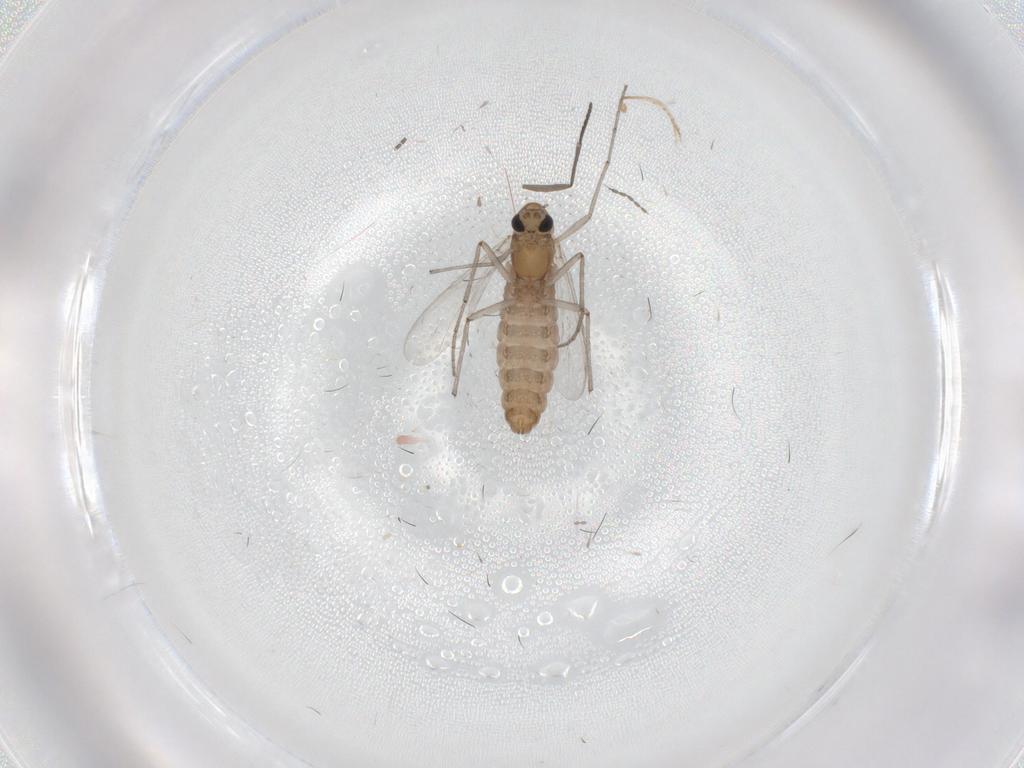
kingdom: Animalia
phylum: Arthropoda
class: Insecta
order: Diptera
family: Chironomidae
